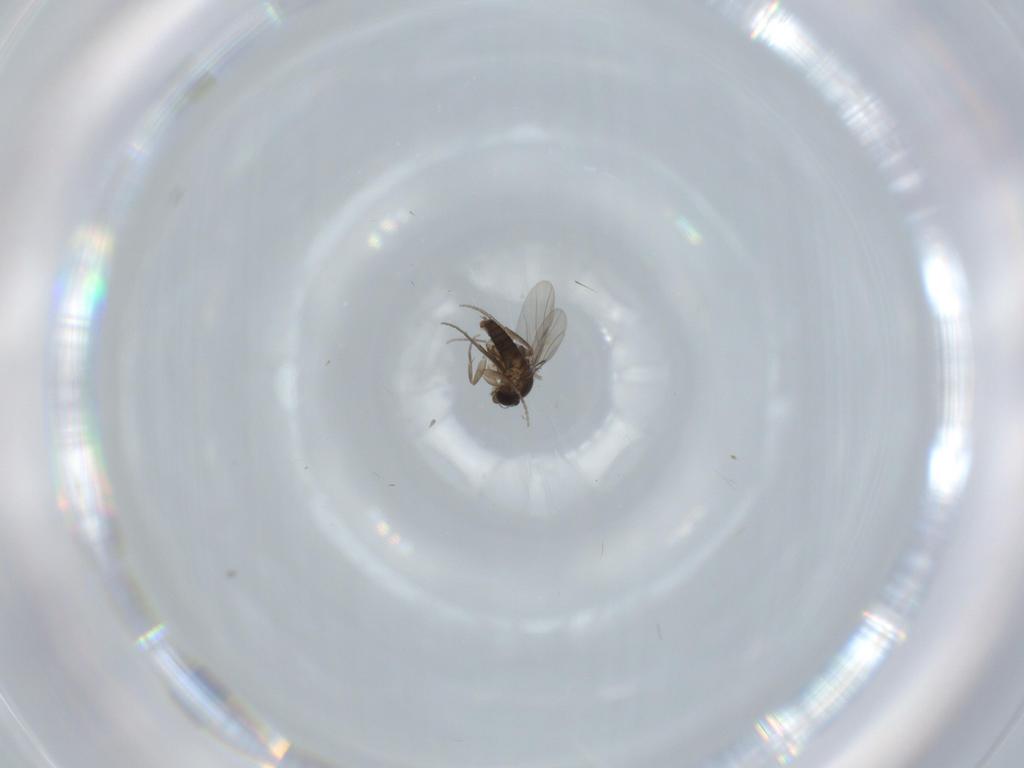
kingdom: Animalia
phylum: Arthropoda
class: Insecta
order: Diptera
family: Phoridae
